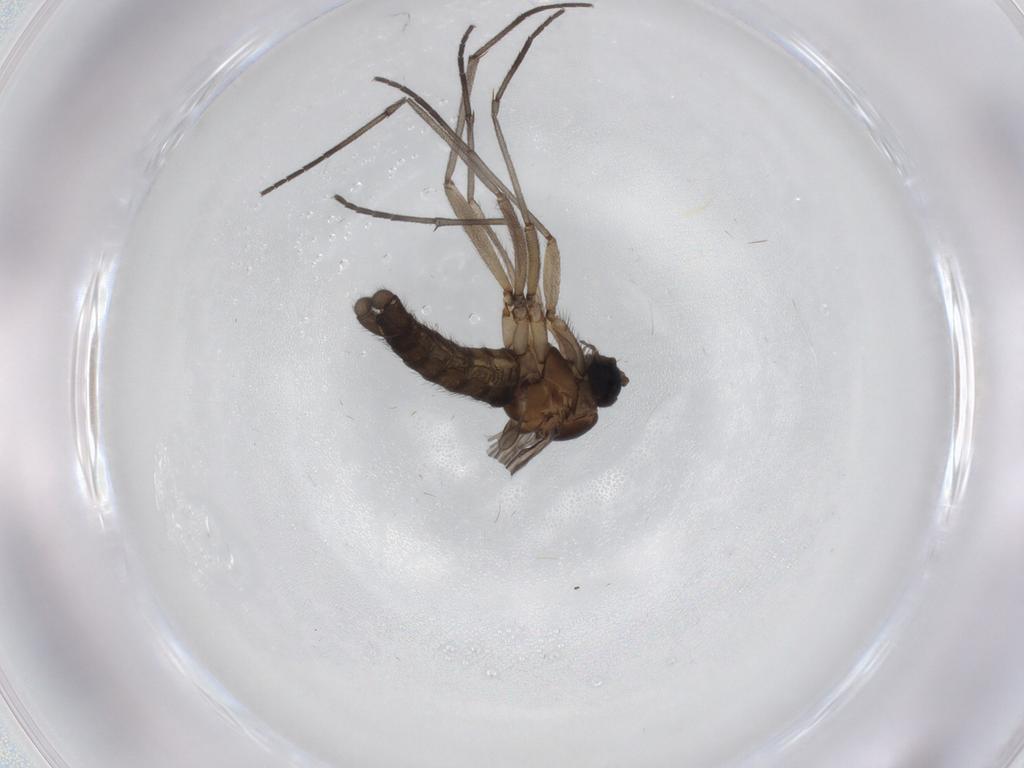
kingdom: Animalia
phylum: Arthropoda
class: Insecta
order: Diptera
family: Sciaridae
